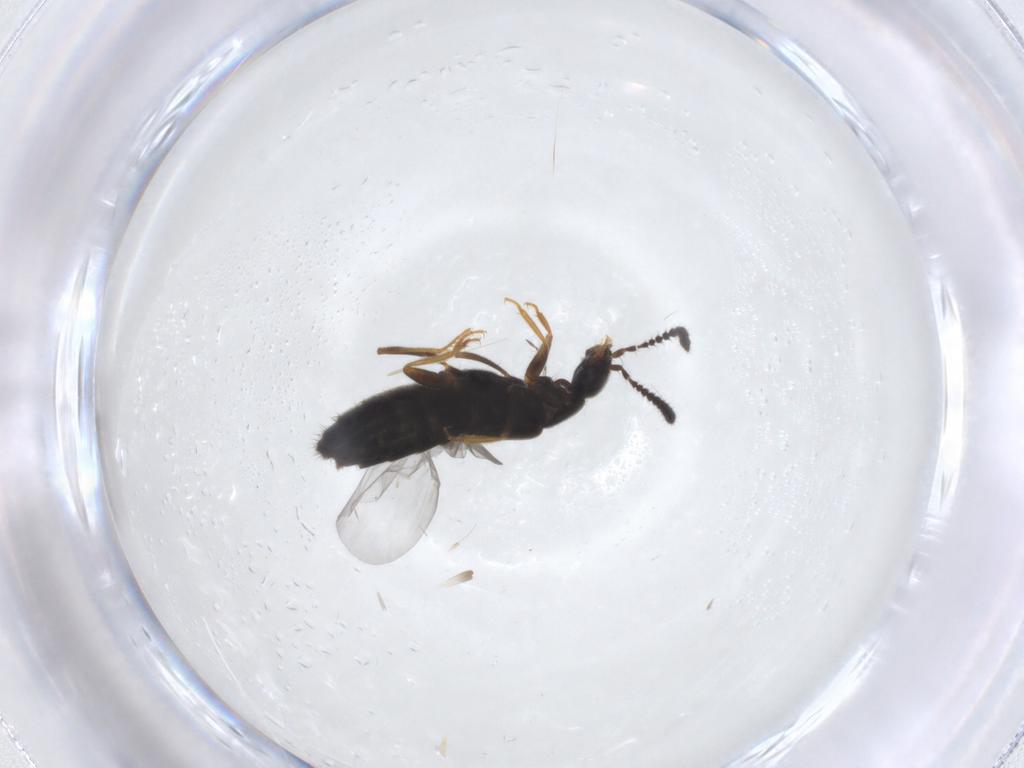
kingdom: Animalia
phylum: Arthropoda
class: Insecta
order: Coleoptera
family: Staphylinidae
